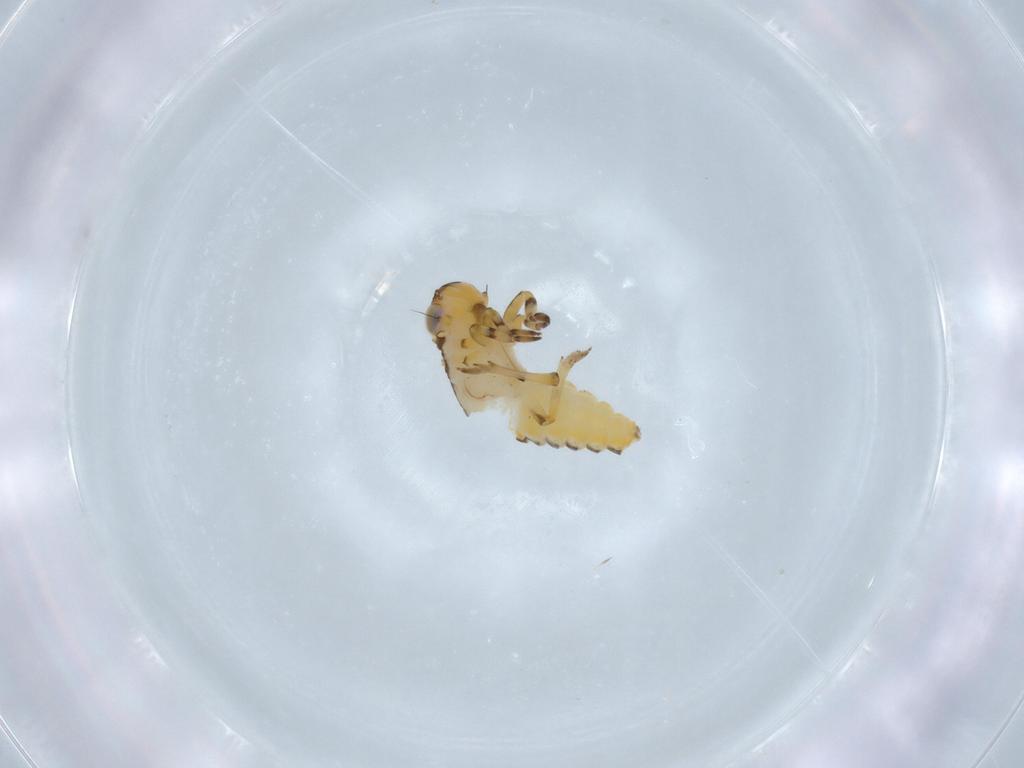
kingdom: Animalia
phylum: Arthropoda
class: Insecta
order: Hemiptera
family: Issidae
